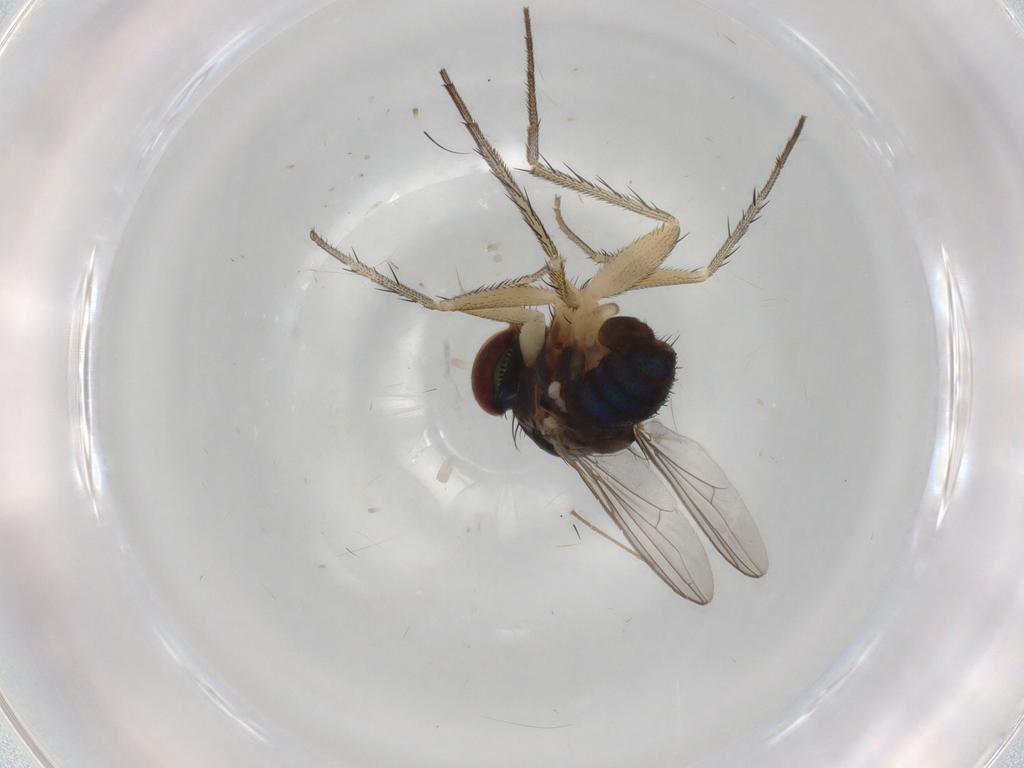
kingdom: Animalia
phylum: Arthropoda
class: Insecta
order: Diptera
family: Dolichopodidae
